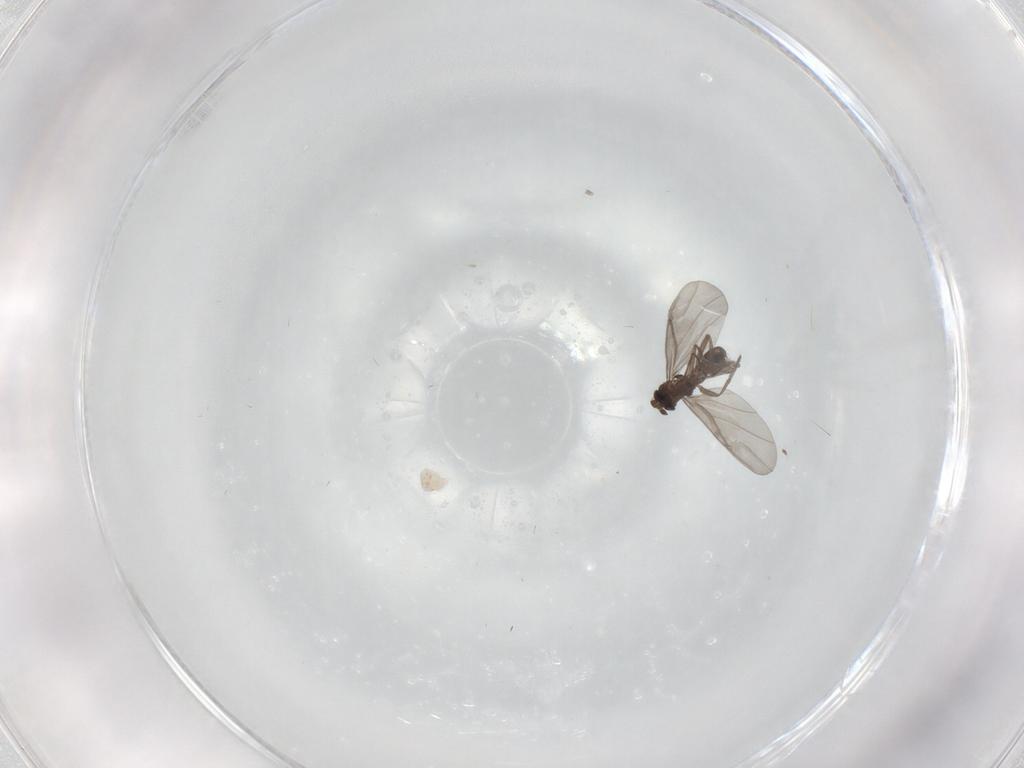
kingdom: Animalia
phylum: Arthropoda
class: Insecta
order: Diptera
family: Phoridae
